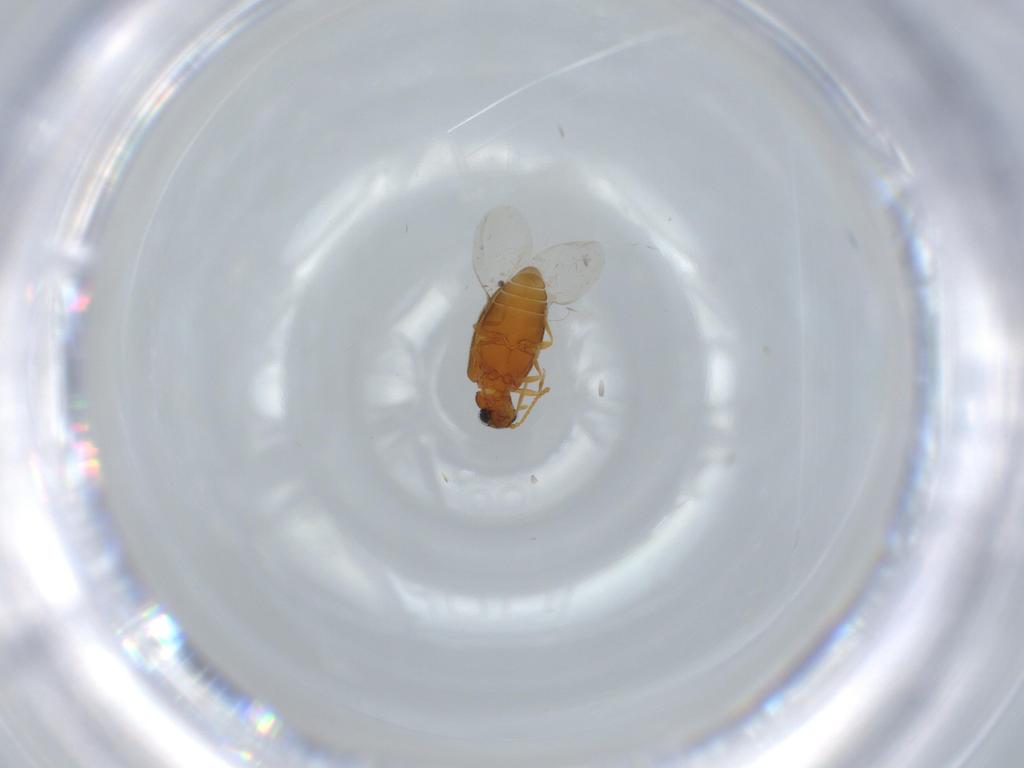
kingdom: Animalia
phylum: Arthropoda
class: Insecta
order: Coleoptera
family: Aderidae
